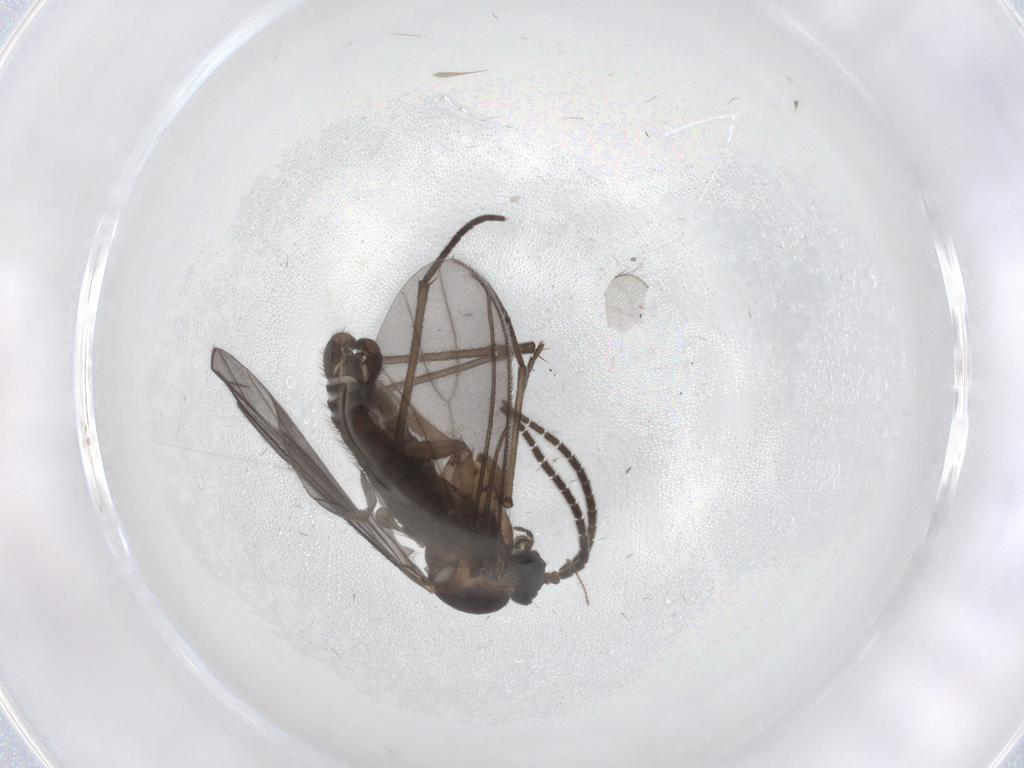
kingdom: Animalia
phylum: Arthropoda
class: Insecta
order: Diptera
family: Sciaridae
